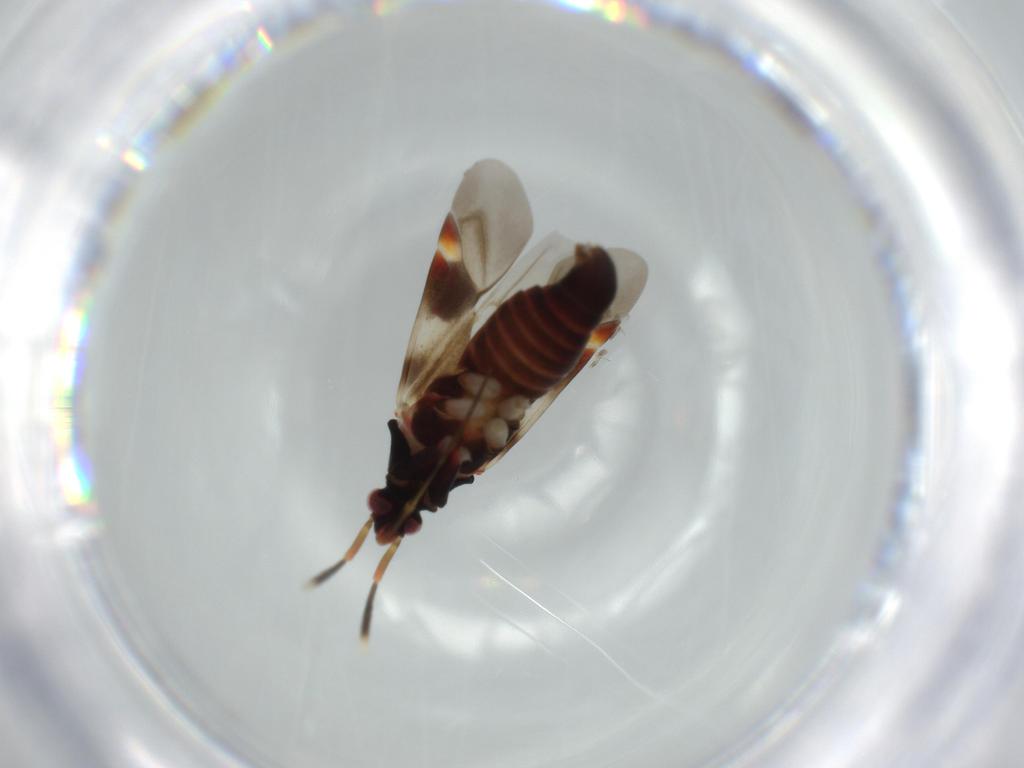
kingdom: Animalia
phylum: Arthropoda
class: Insecta
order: Hemiptera
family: Miridae
